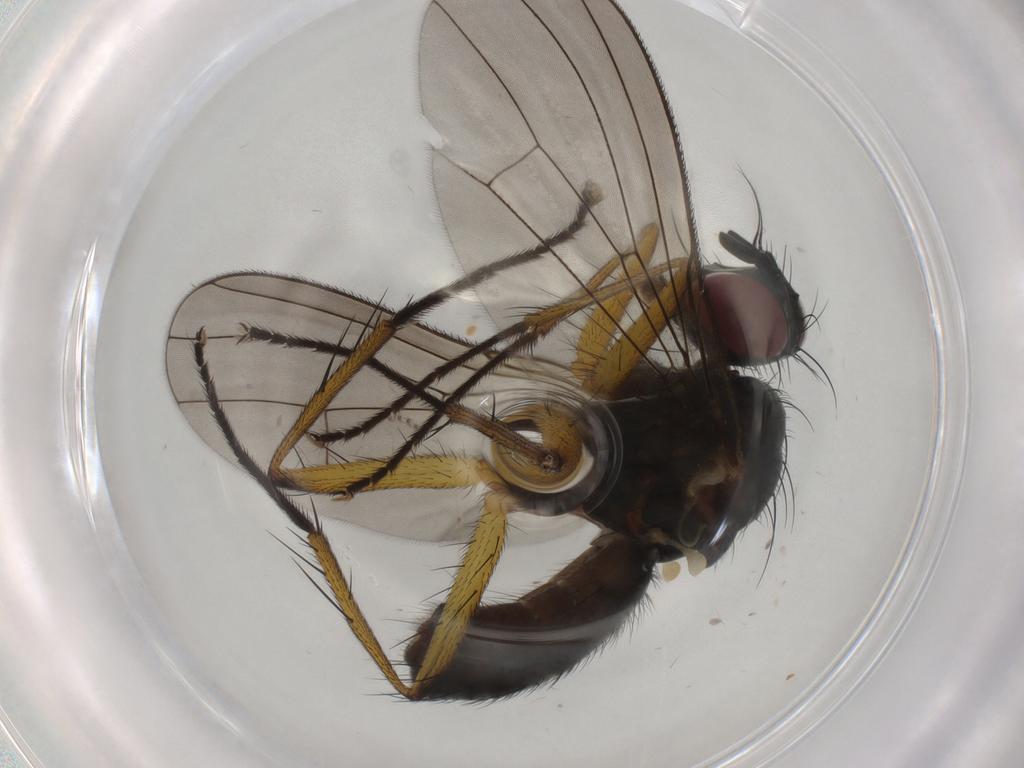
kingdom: Animalia
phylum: Arthropoda
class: Insecta
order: Diptera
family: Muscidae
